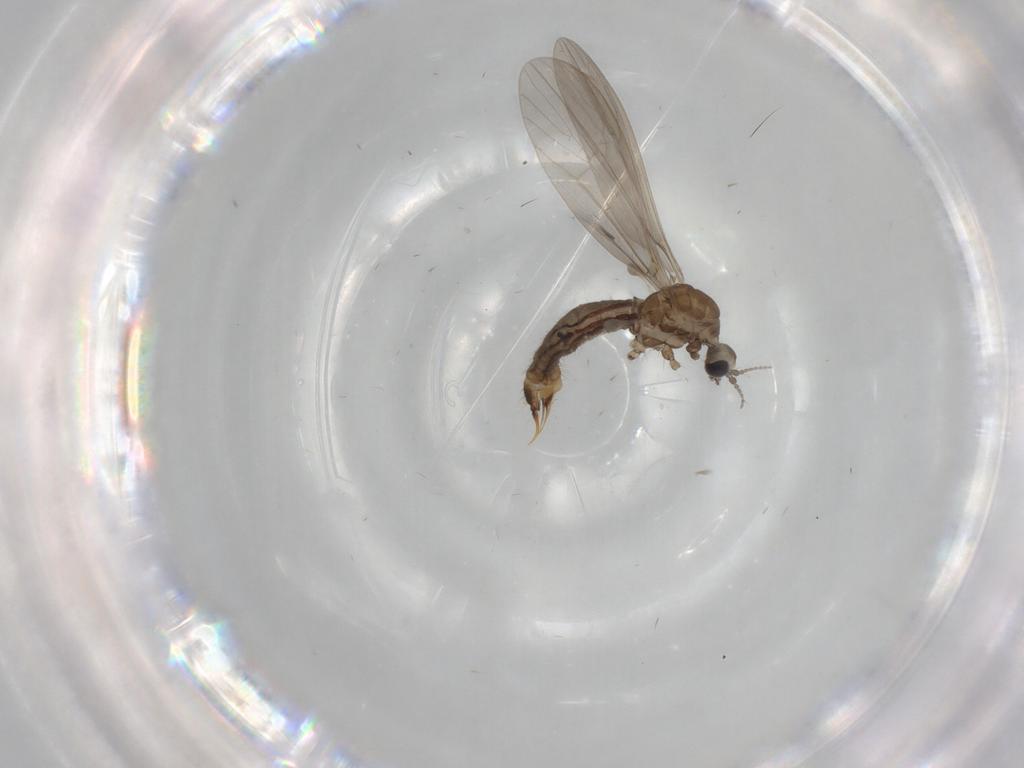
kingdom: Animalia
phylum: Arthropoda
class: Insecta
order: Diptera
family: Limoniidae
